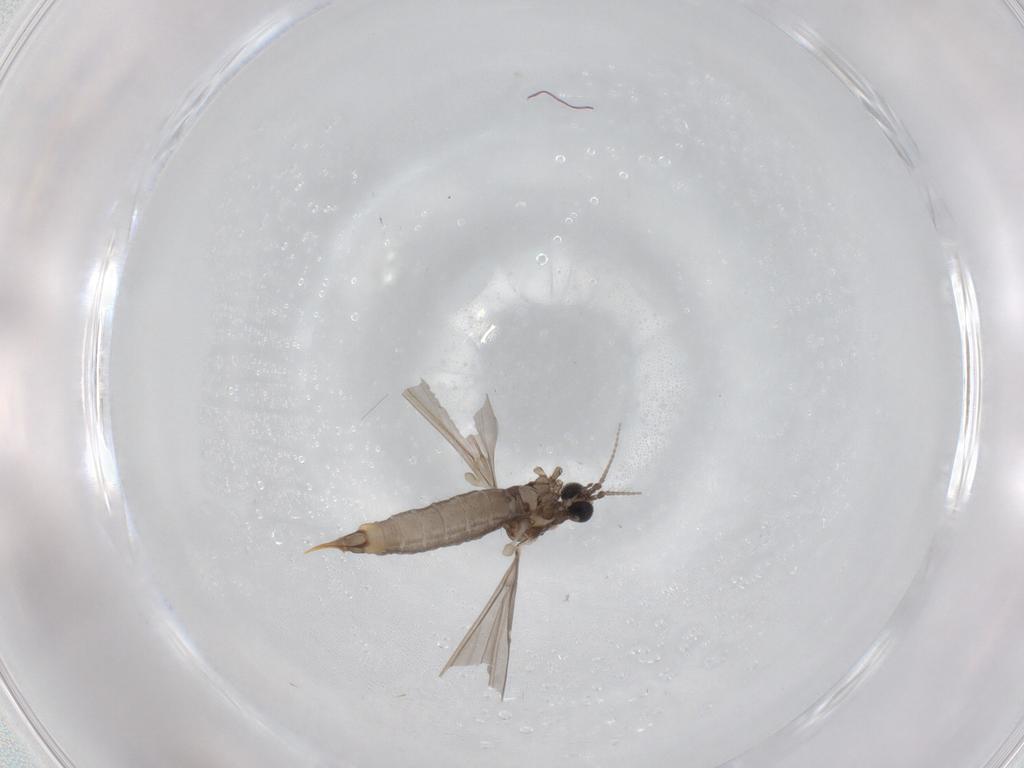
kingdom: Animalia
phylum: Arthropoda
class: Insecta
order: Diptera
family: Limoniidae
